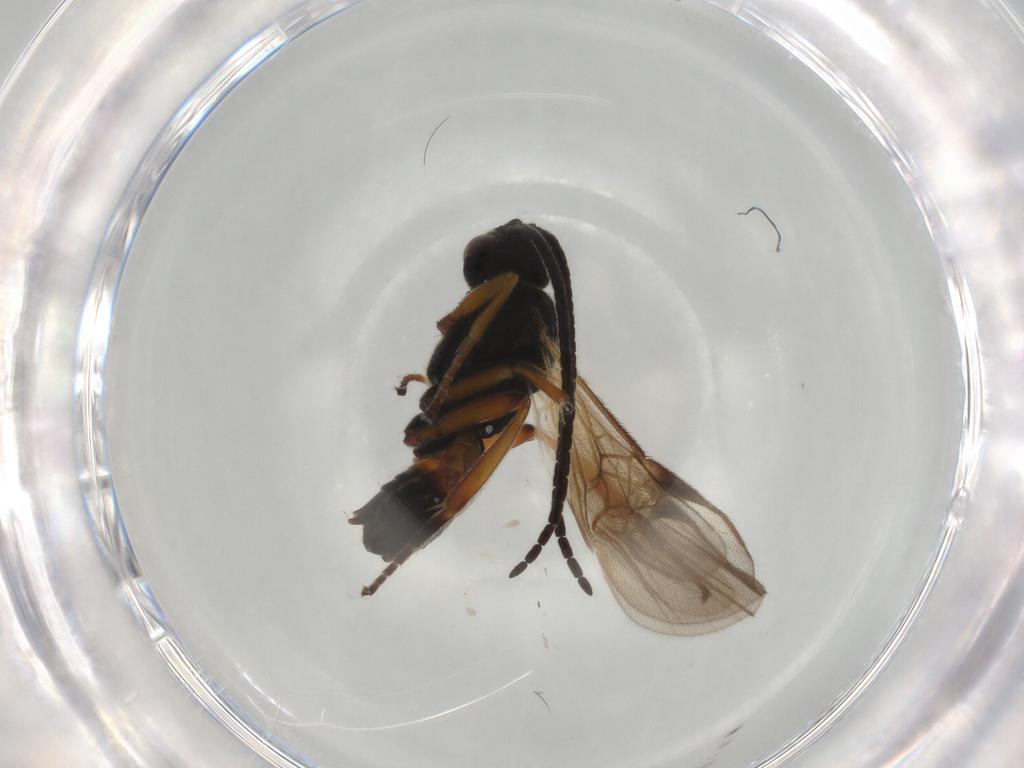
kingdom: Animalia
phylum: Arthropoda
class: Insecta
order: Hymenoptera
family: Braconidae
